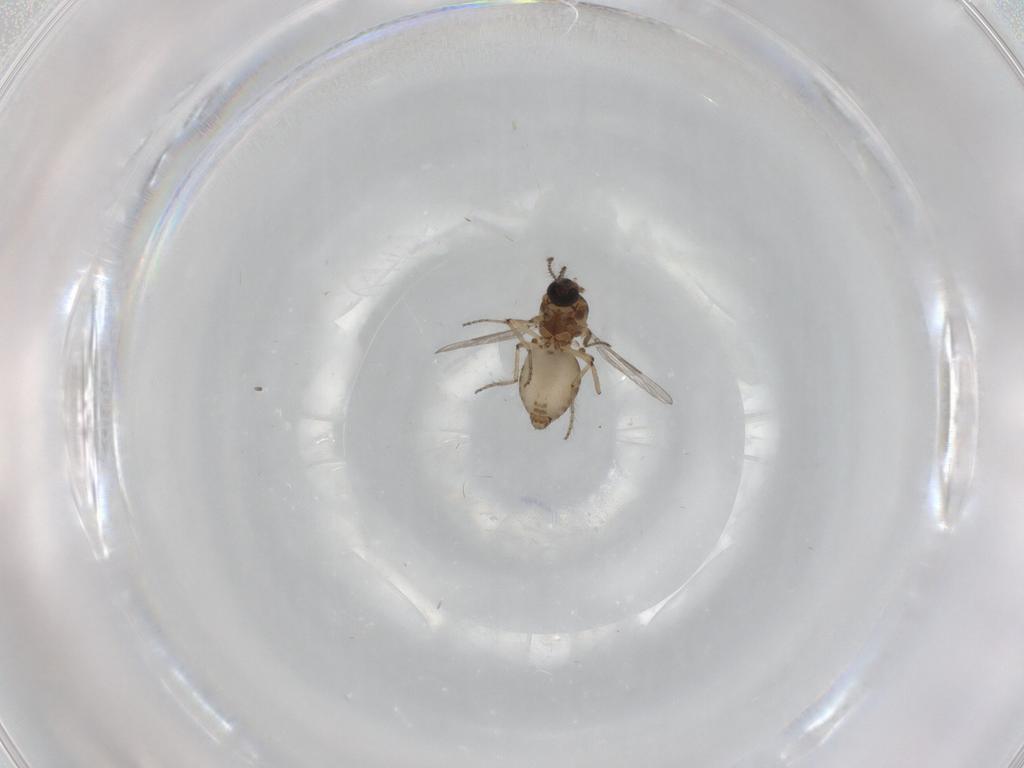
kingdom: Animalia
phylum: Arthropoda
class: Insecta
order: Diptera
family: Ceratopogonidae
